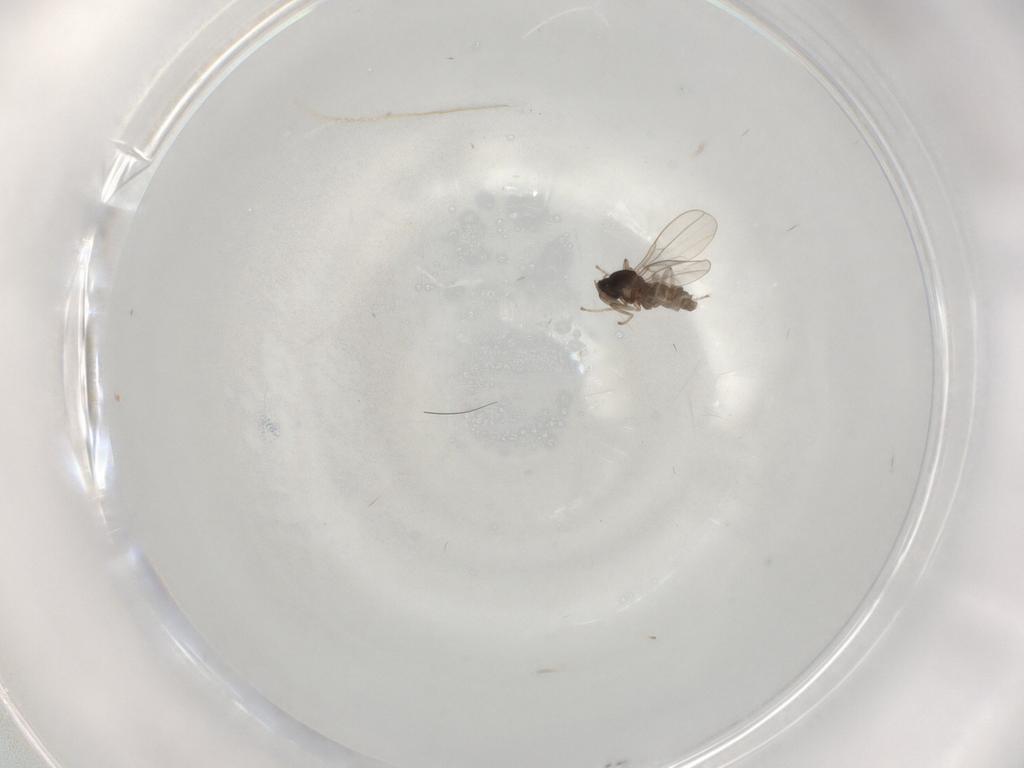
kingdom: Animalia
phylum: Arthropoda
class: Insecta
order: Diptera
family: Cecidomyiidae
